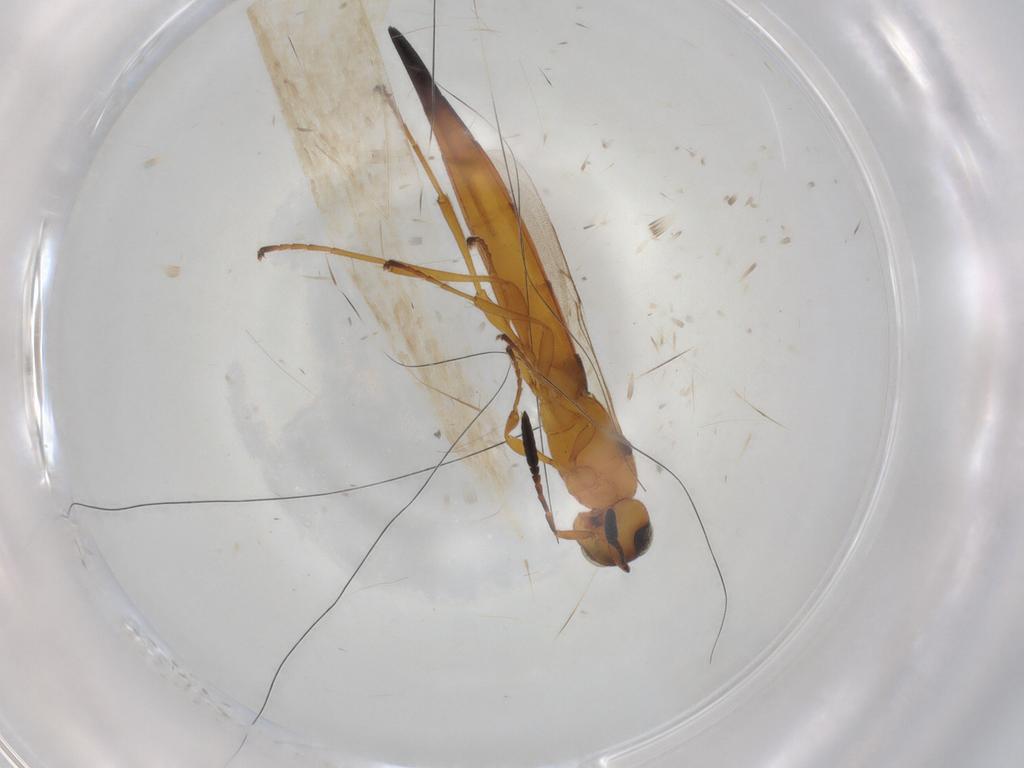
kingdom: Animalia
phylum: Arthropoda
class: Insecta
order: Hymenoptera
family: Scelionidae
